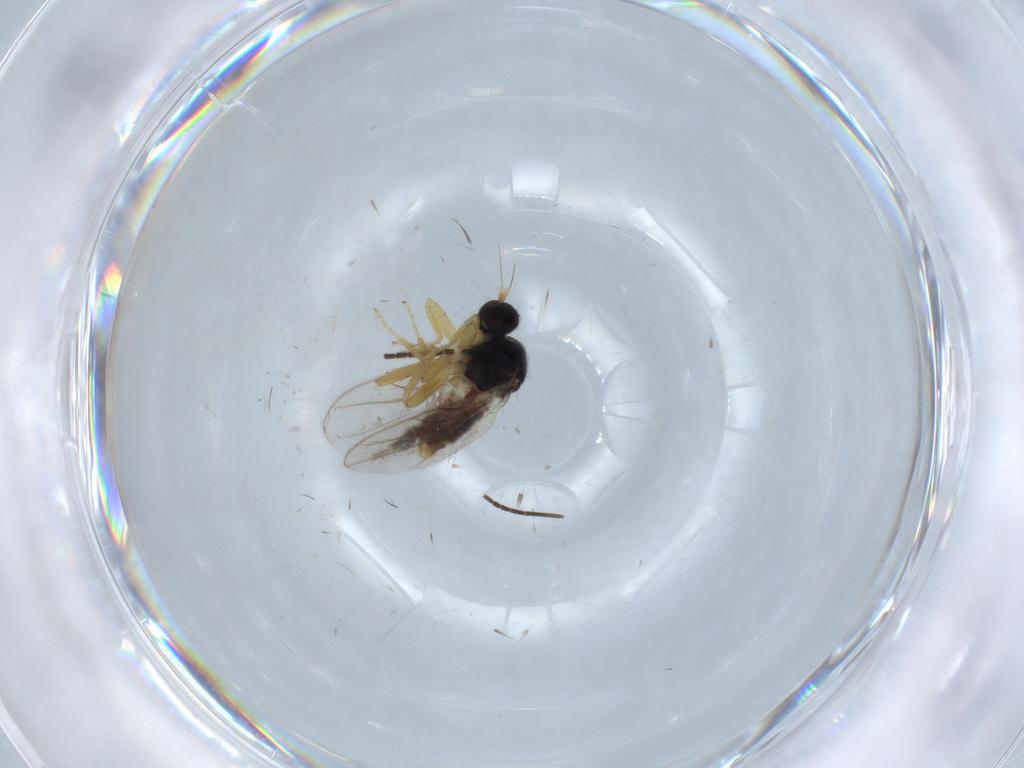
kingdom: Animalia
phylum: Arthropoda
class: Insecta
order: Diptera
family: Hybotidae
